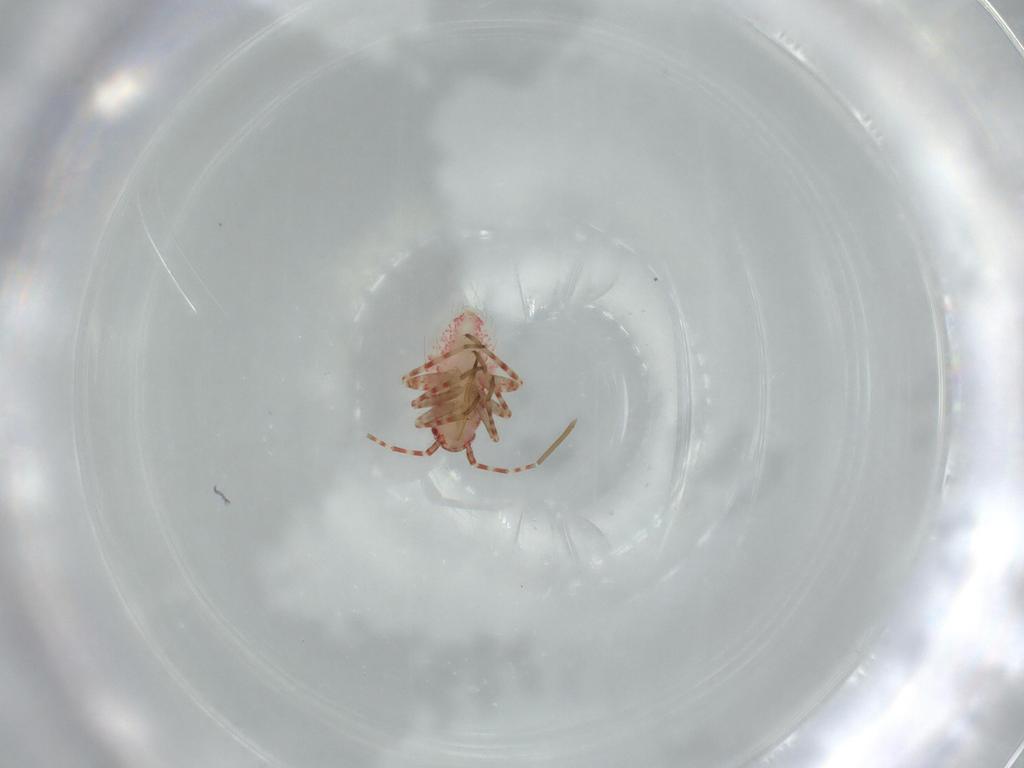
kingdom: Animalia
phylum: Arthropoda
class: Insecta
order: Hemiptera
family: Miridae
